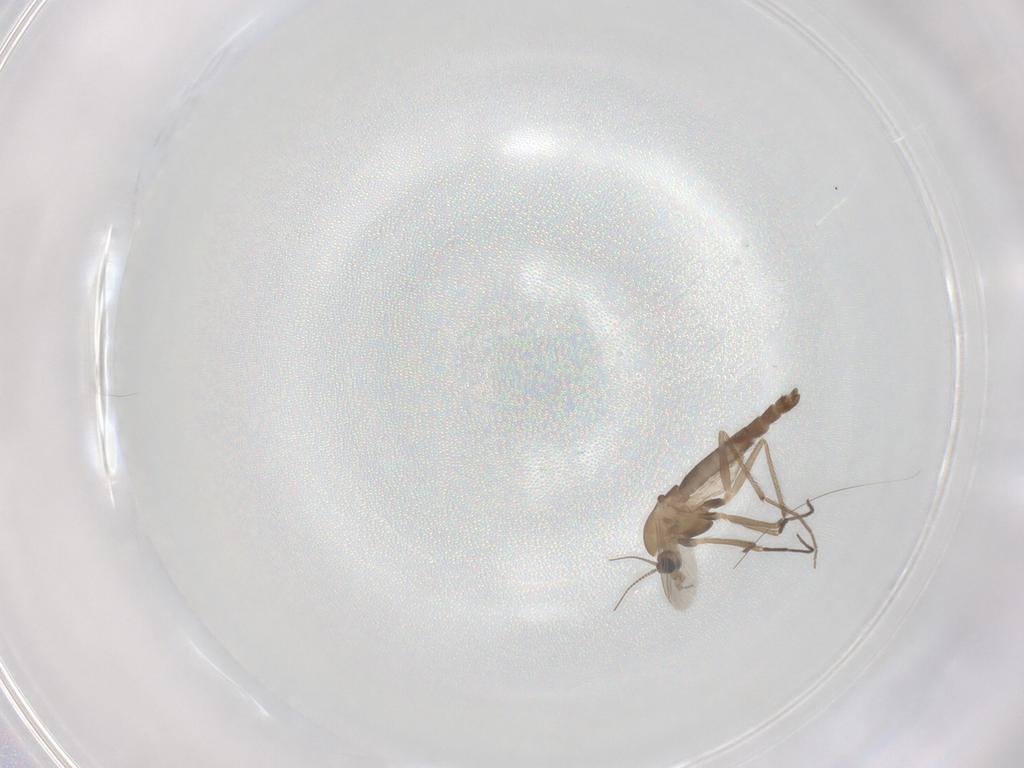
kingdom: Animalia
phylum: Arthropoda
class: Insecta
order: Diptera
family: Chironomidae
